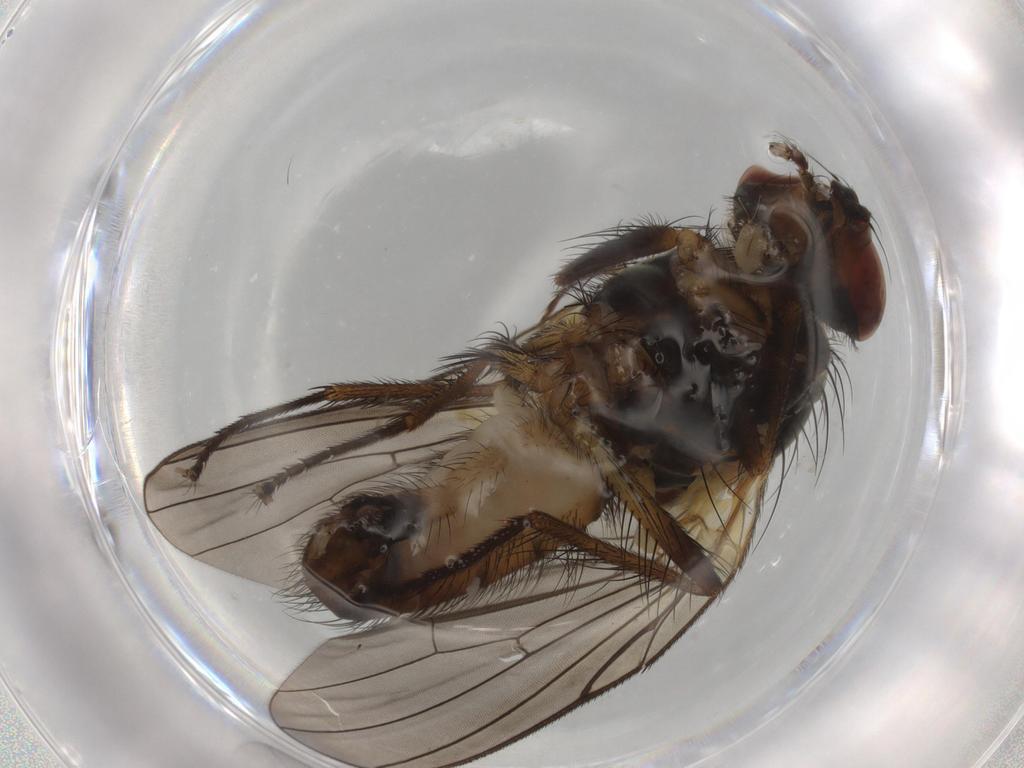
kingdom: Animalia
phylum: Arthropoda
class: Insecta
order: Diptera
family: Anthomyiidae
